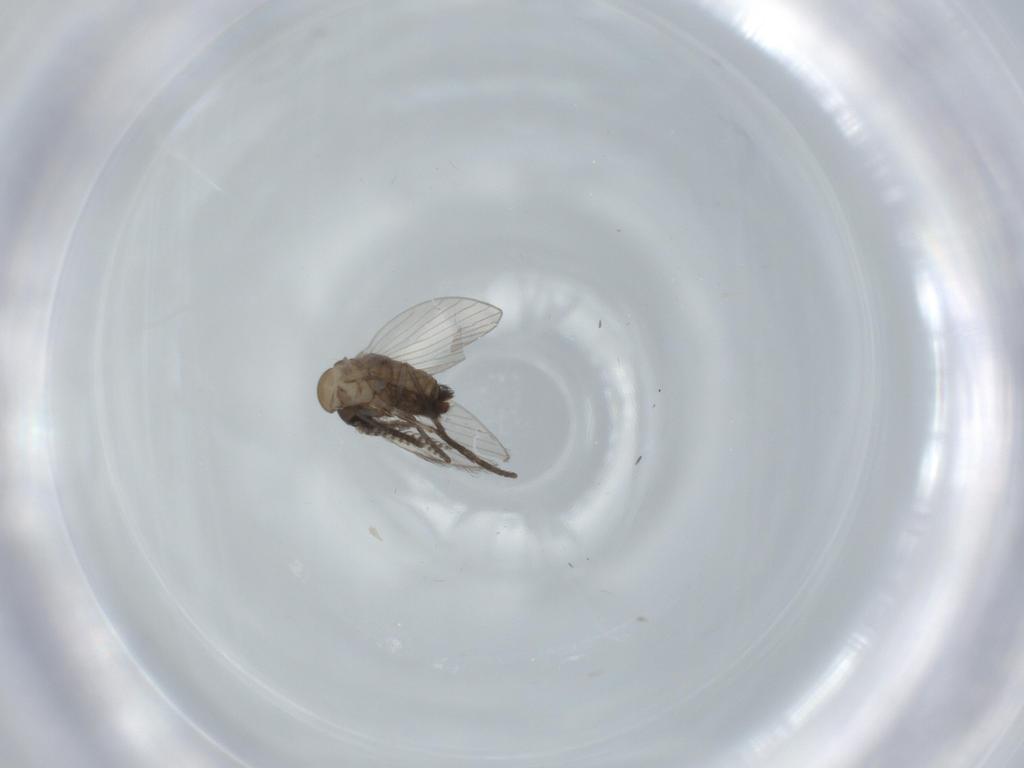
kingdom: Animalia
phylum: Arthropoda
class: Insecta
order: Diptera
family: Psychodidae
